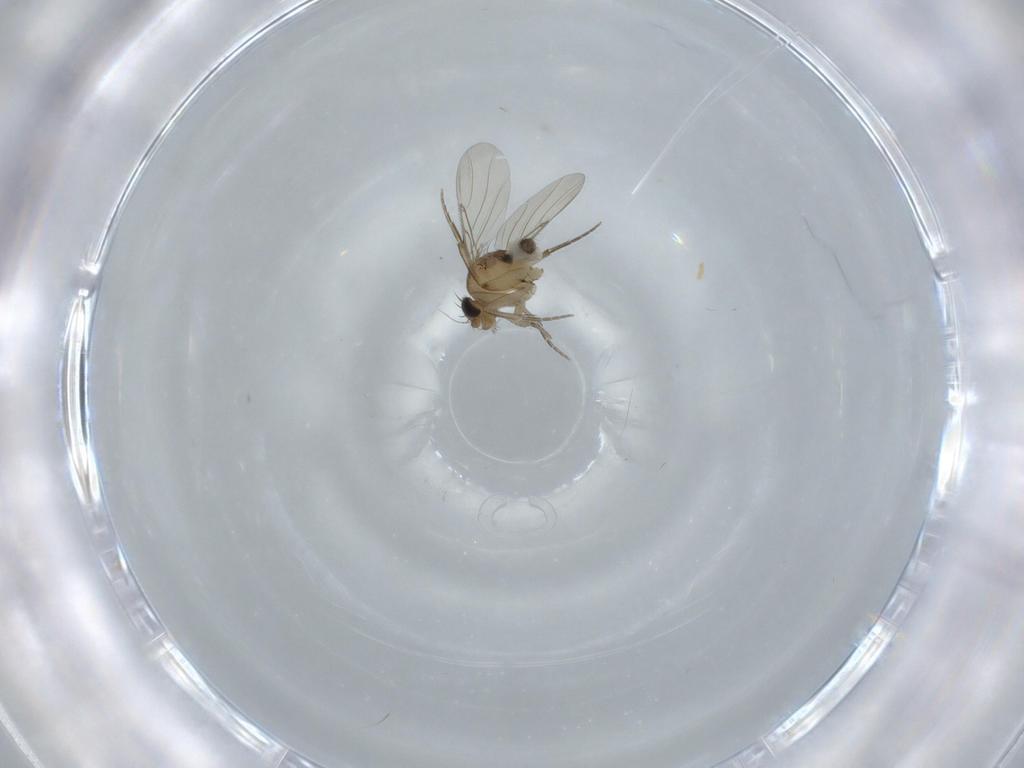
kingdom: Animalia
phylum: Arthropoda
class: Insecta
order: Diptera
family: Phoridae
